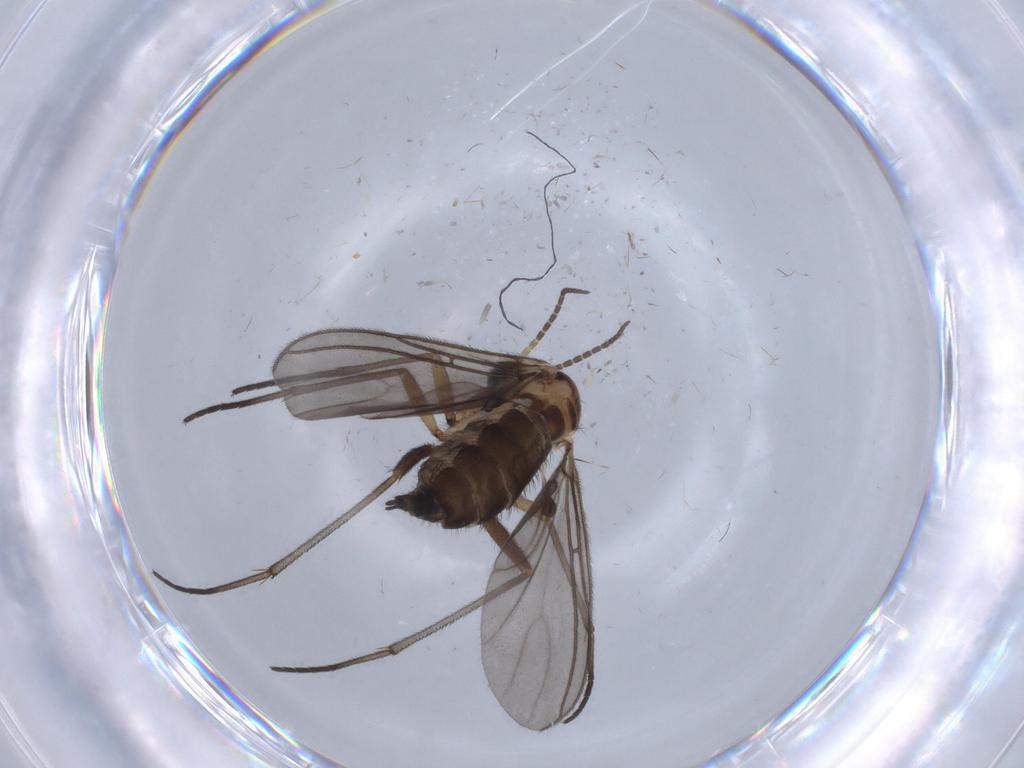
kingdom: Animalia
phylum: Arthropoda
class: Insecta
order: Diptera
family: Sciaridae
